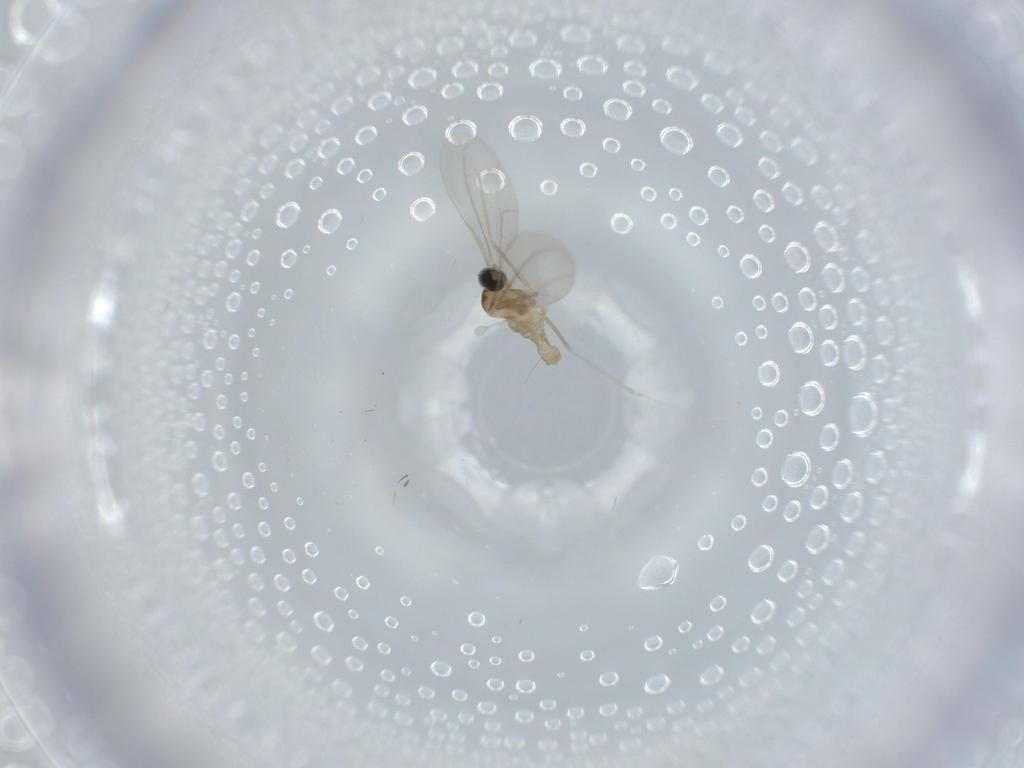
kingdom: Animalia
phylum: Arthropoda
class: Insecta
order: Diptera
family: Cecidomyiidae
